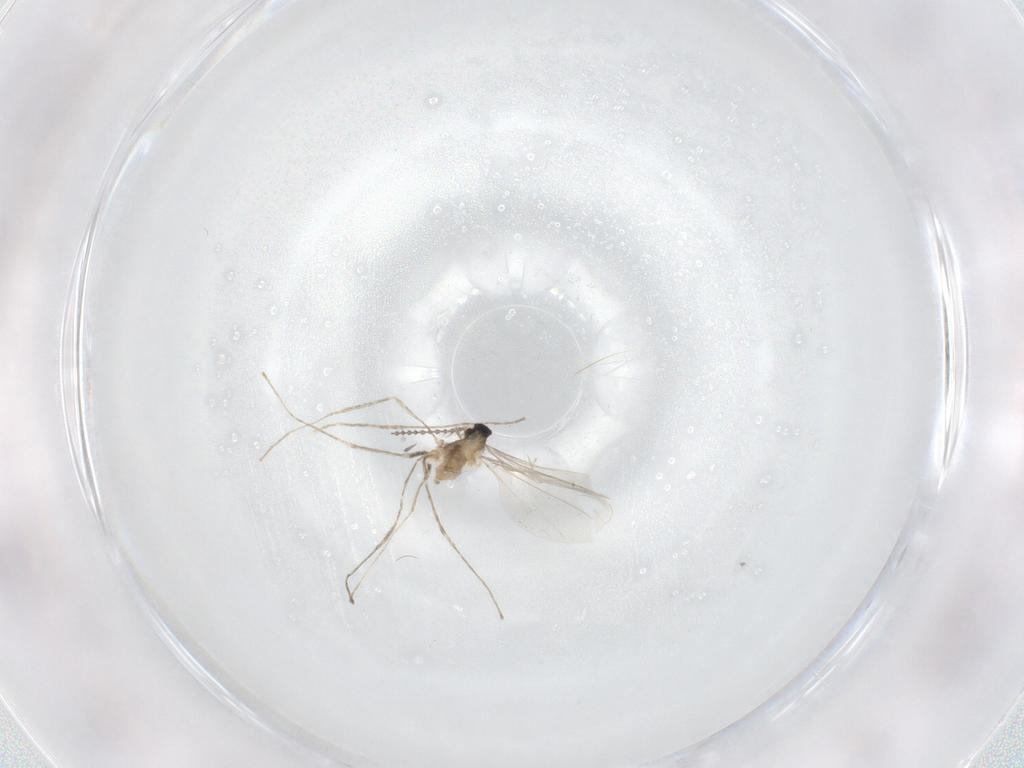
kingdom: Animalia
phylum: Arthropoda
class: Insecta
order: Diptera
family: Cecidomyiidae
